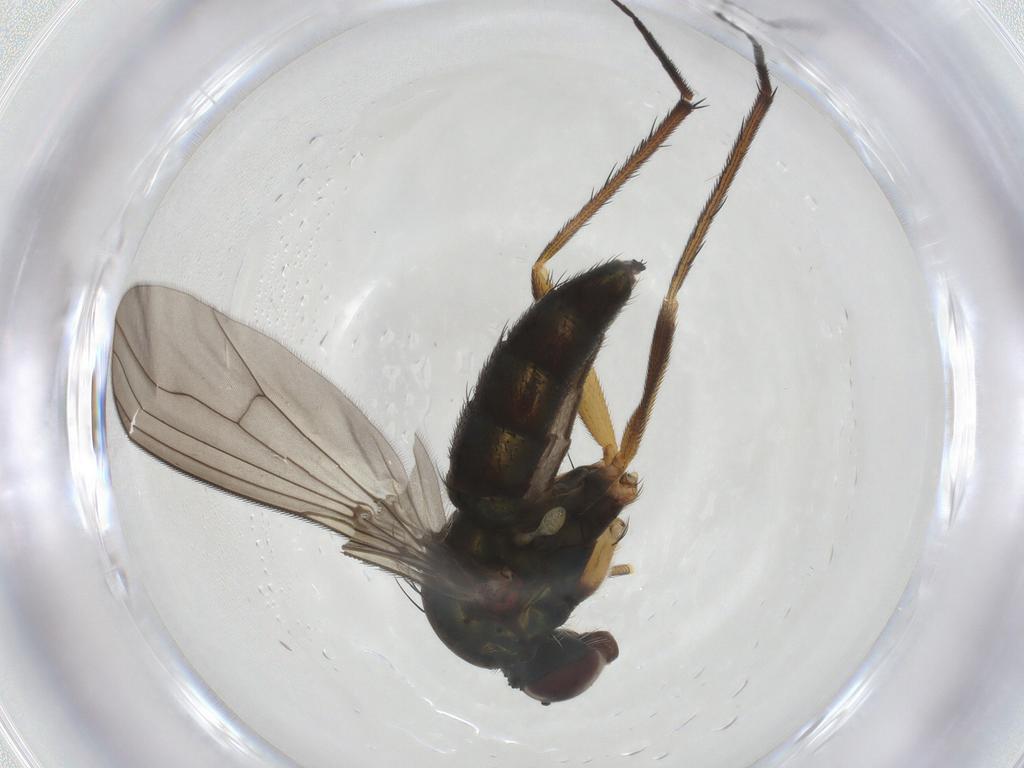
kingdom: Animalia
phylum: Arthropoda
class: Insecta
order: Diptera
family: Dolichopodidae
